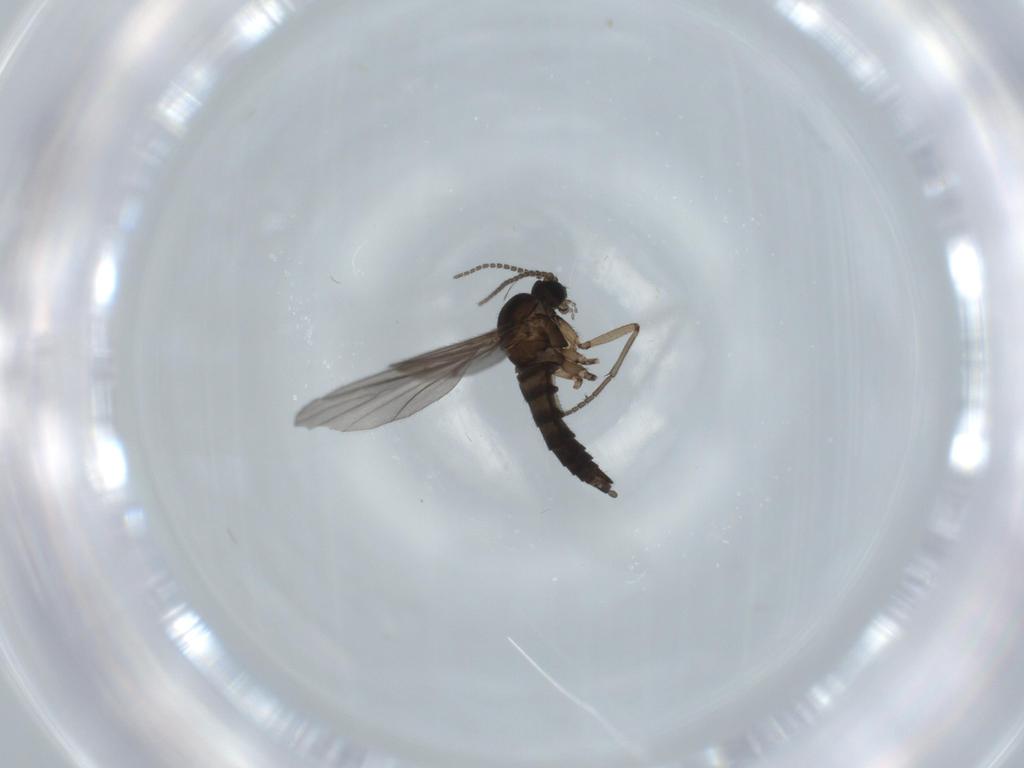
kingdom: Animalia
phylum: Arthropoda
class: Insecta
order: Diptera
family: Sciaridae
